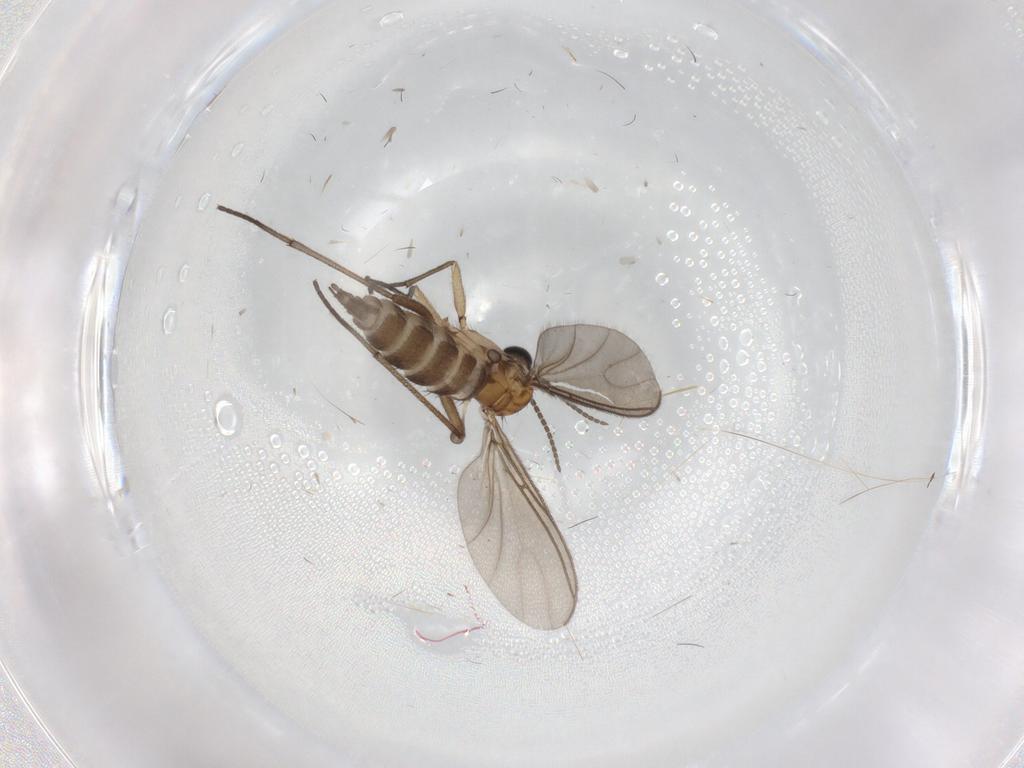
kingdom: Animalia
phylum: Arthropoda
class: Insecta
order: Diptera
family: Sciaridae
